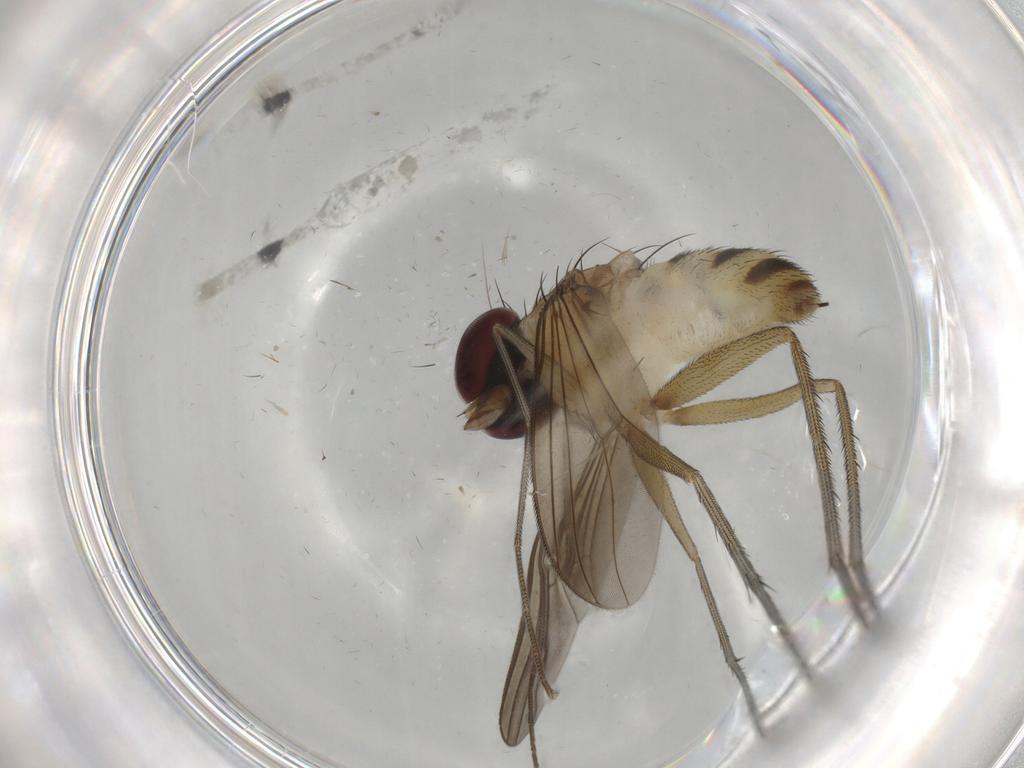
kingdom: Animalia
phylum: Arthropoda
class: Insecta
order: Diptera
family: Dolichopodidae
